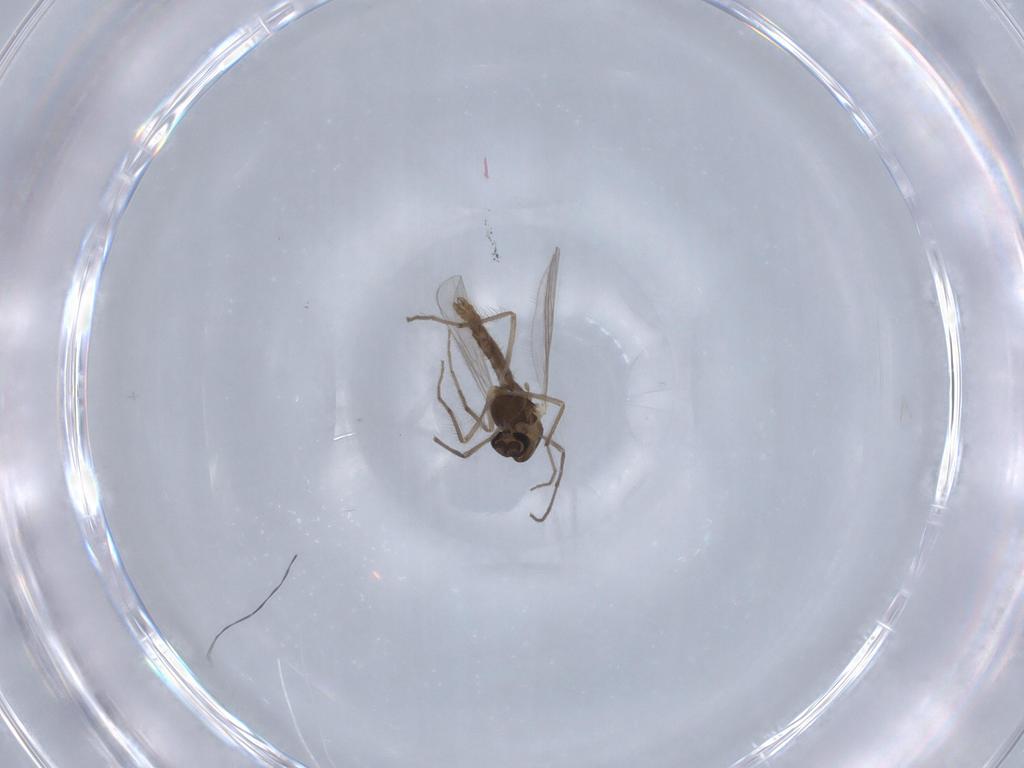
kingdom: Animalia
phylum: Arthropoda
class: Insecta
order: Diptera
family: Chironomidae
